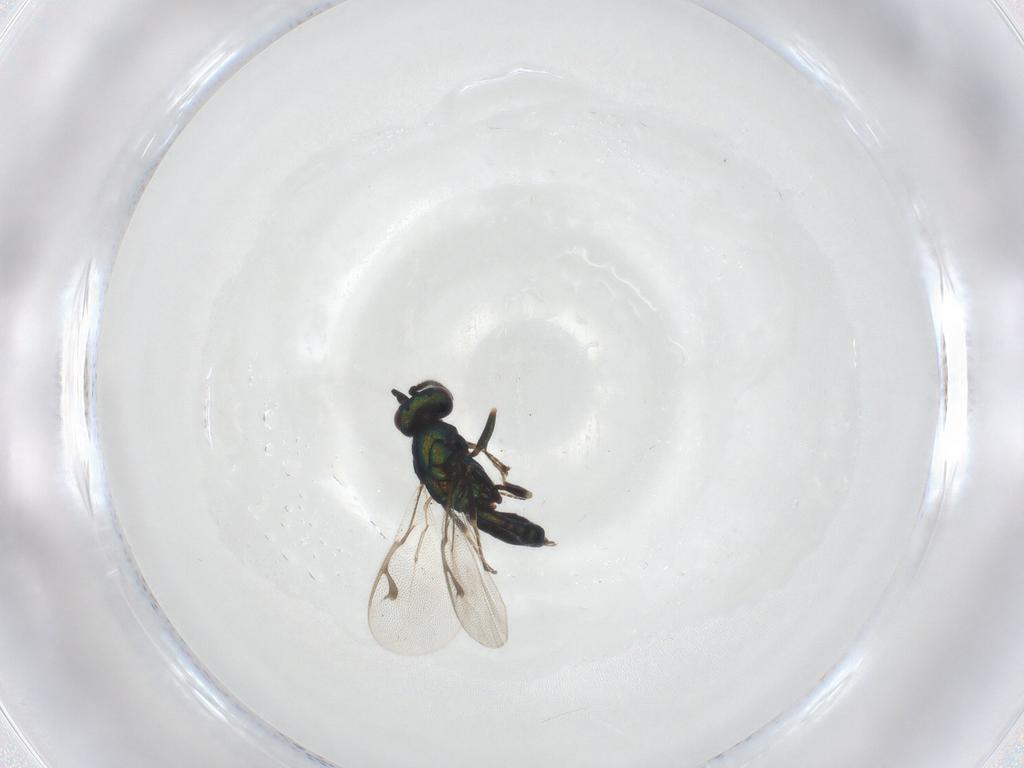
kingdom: Animalia
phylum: Arthropoda
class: Insecta
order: Hymenoptera
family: Pteromalidae
